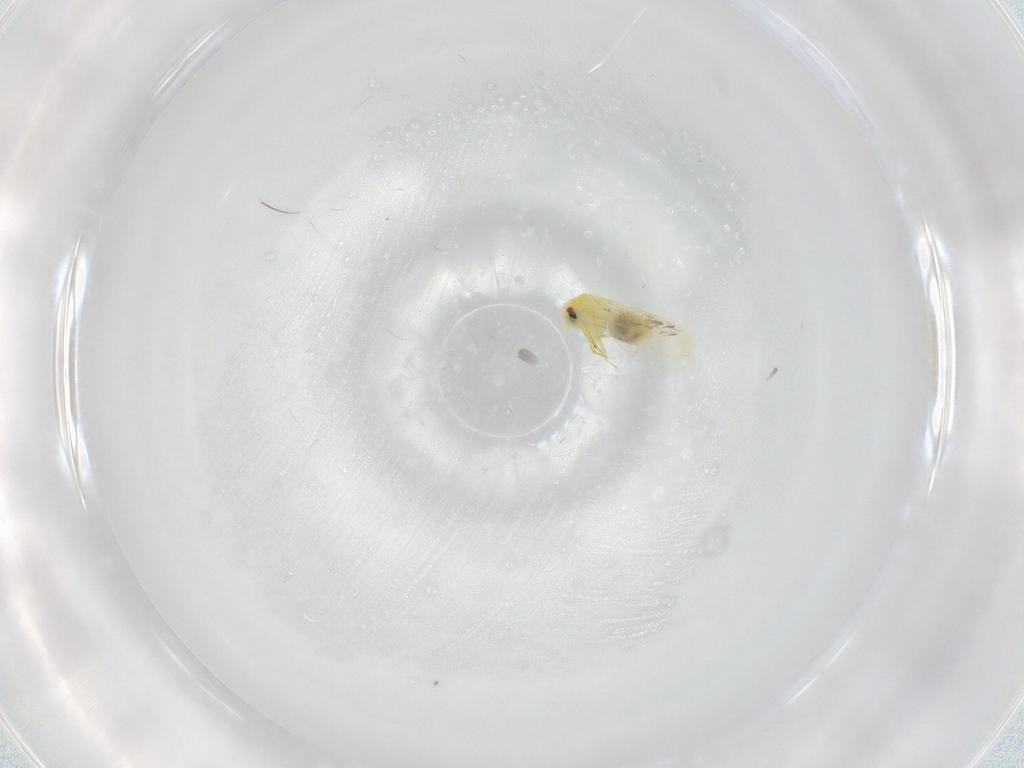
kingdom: Animalia
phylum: Arthropoda
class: Insecta
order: Hemiptera
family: Aleyrodidae
